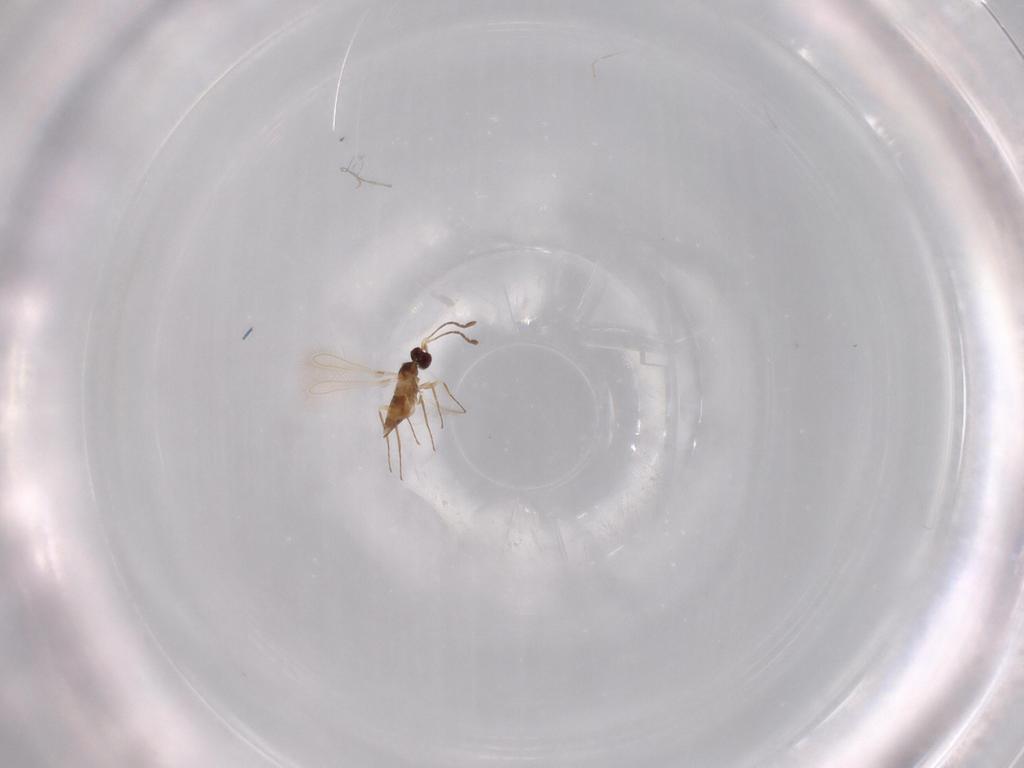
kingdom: Animalia
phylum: Arthropoda
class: Insecta
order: Hymenoptera
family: Mymaridae
